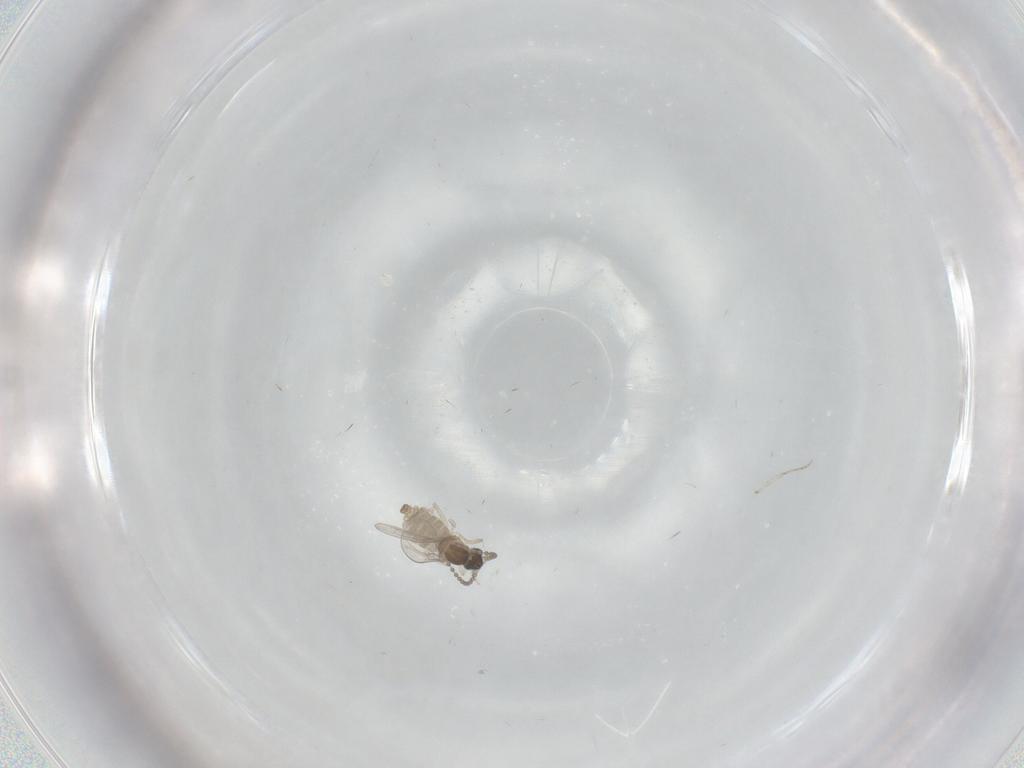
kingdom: Animalia
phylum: Arthropoda
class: Insecta
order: Diptera
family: Cecidomyiidae
